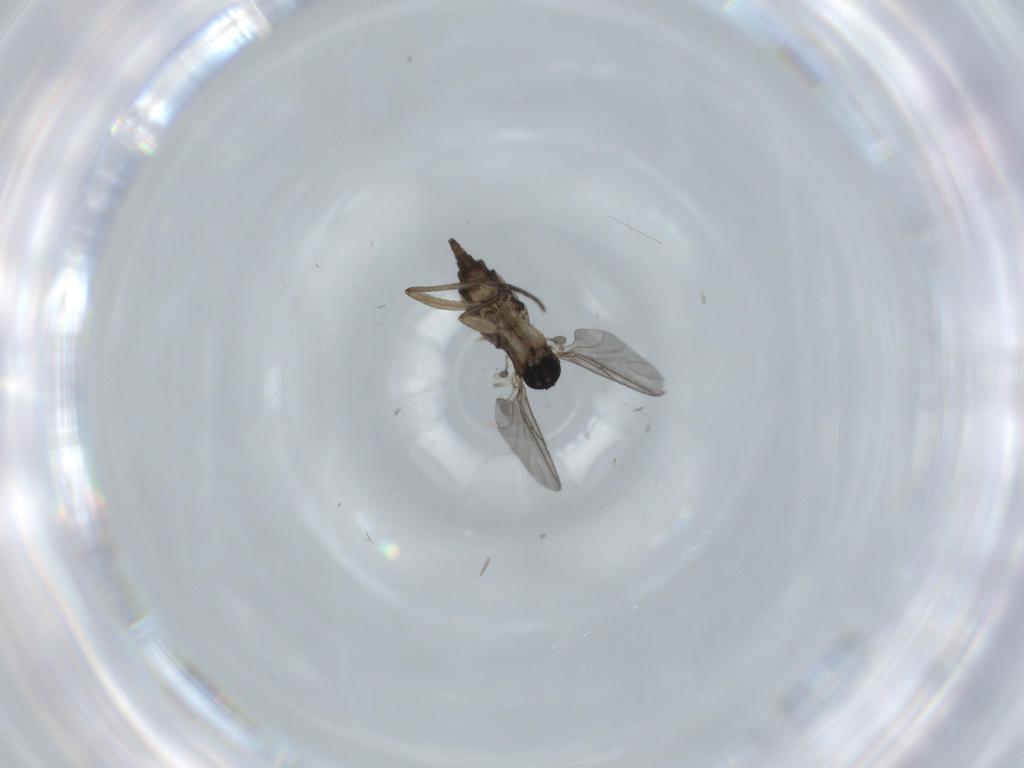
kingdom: Animalia
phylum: Arthropoda
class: Insecta
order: Diptera
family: Sciaridae
